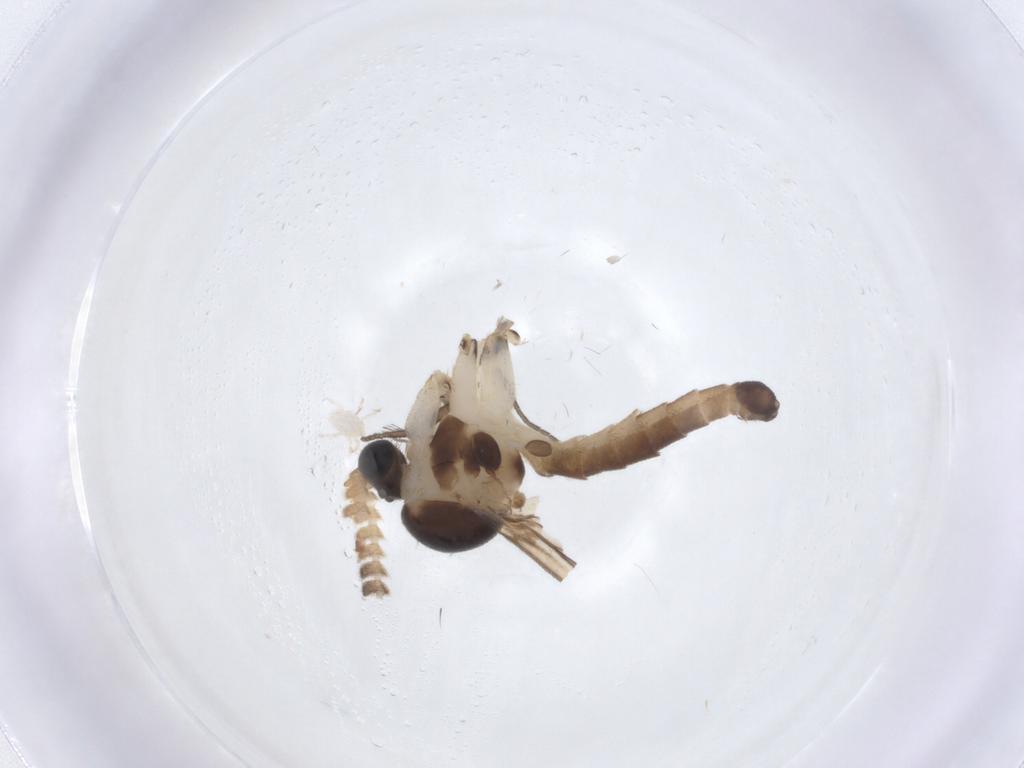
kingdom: Animalia
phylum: Arthropoda
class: Insecta
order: Diptera
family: Psychodidae
